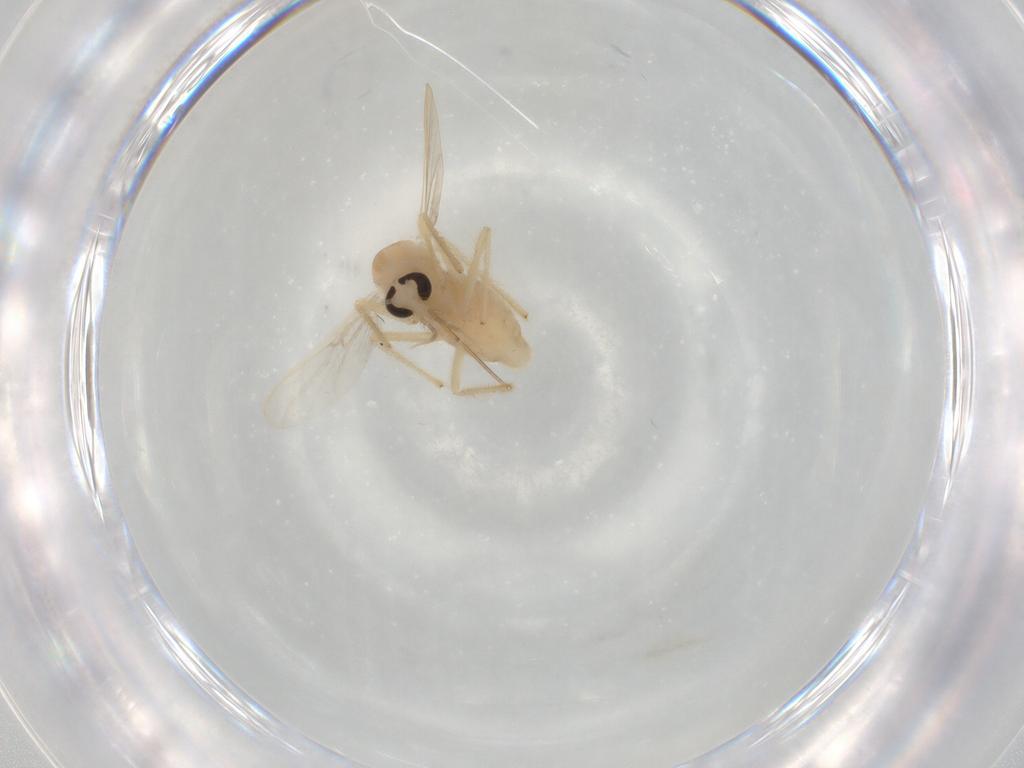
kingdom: Animalia
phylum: Arthropoda
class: Insecta
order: Diptera
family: Chironomidae
